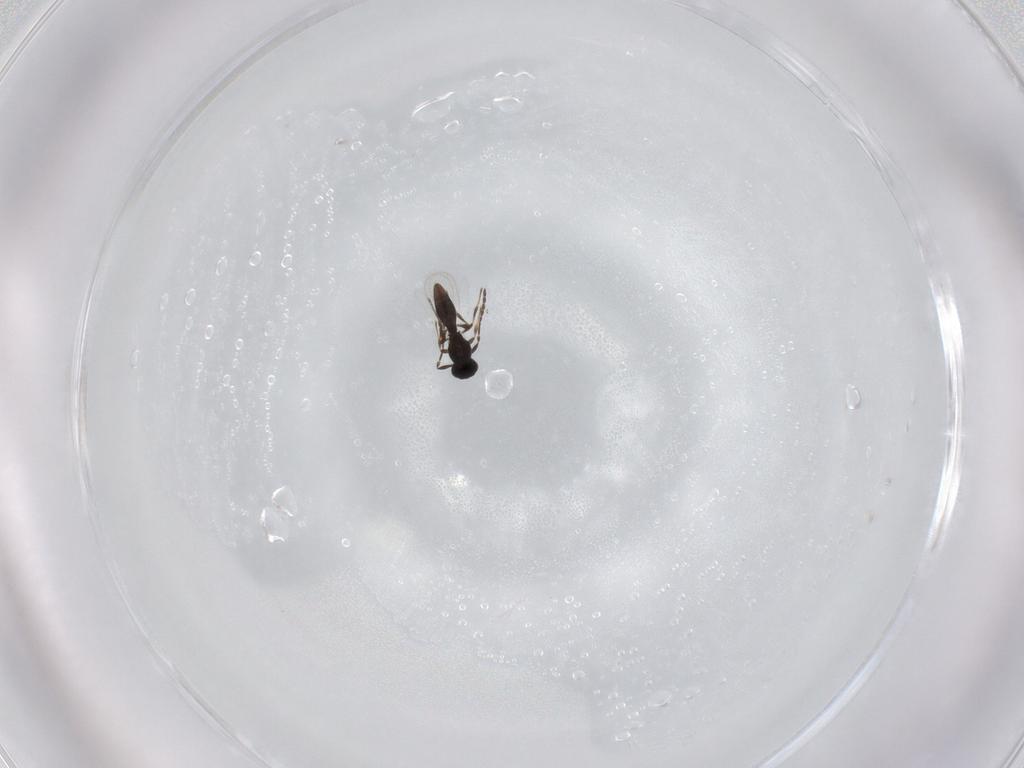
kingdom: Animalia
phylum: Arthropoda
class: Insecta
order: Hymenoptera
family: Platygastridae
